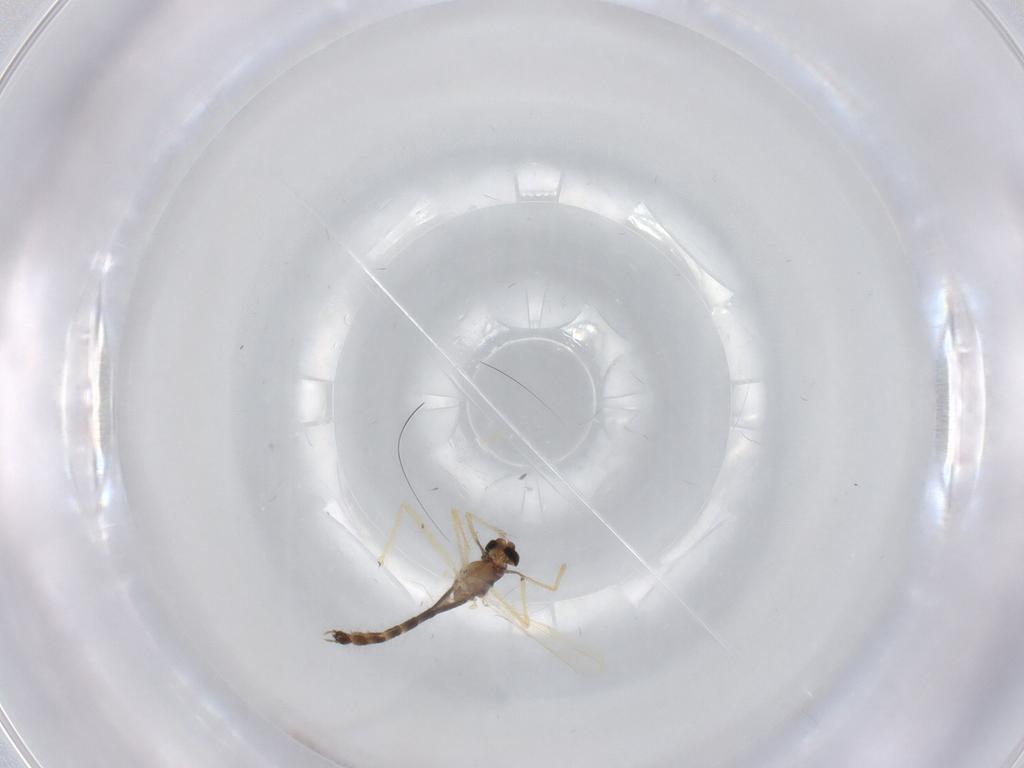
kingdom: Animalia
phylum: Arthropoda
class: Insecta
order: Diptera
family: Chironomidae
